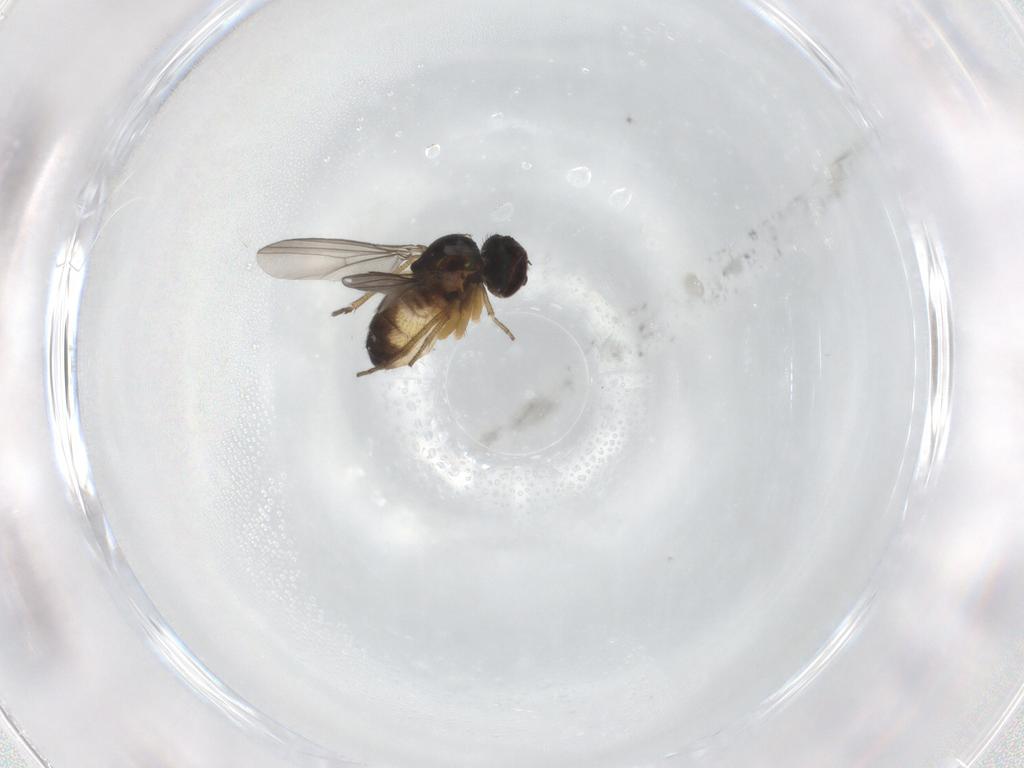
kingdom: Animalia
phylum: Arthropoda
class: Insecta
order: Diptera
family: Dolichopodidae
